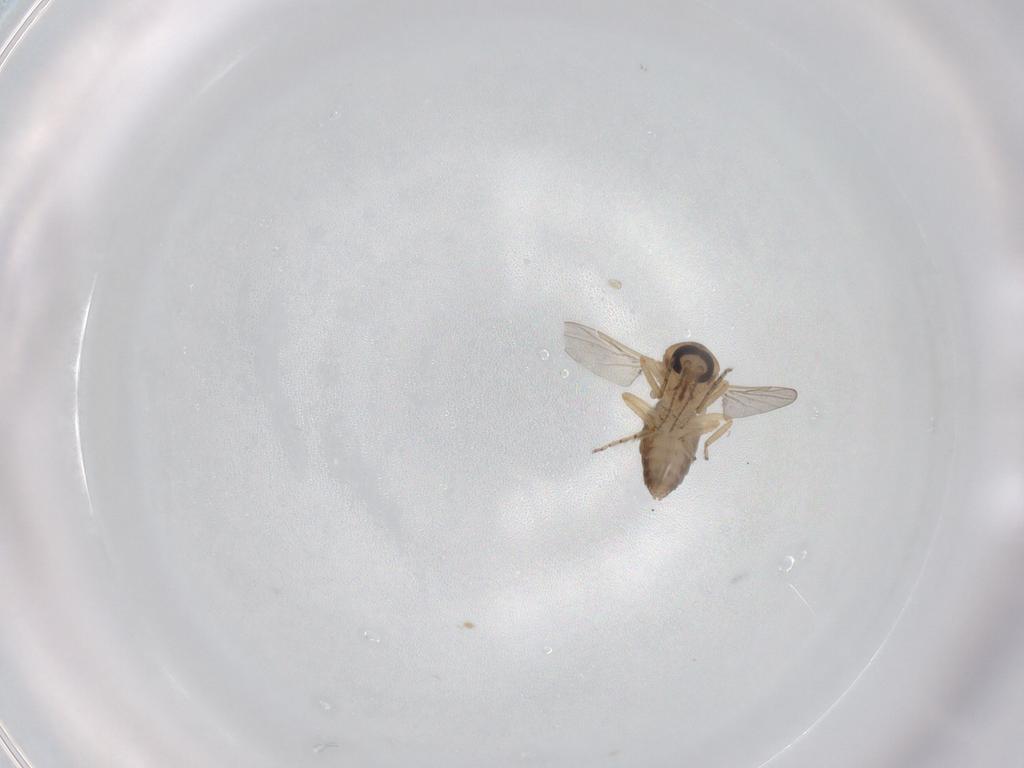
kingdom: Animalia
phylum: Arthropoda
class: Insecta
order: Diptera
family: Ceratopogonidae
